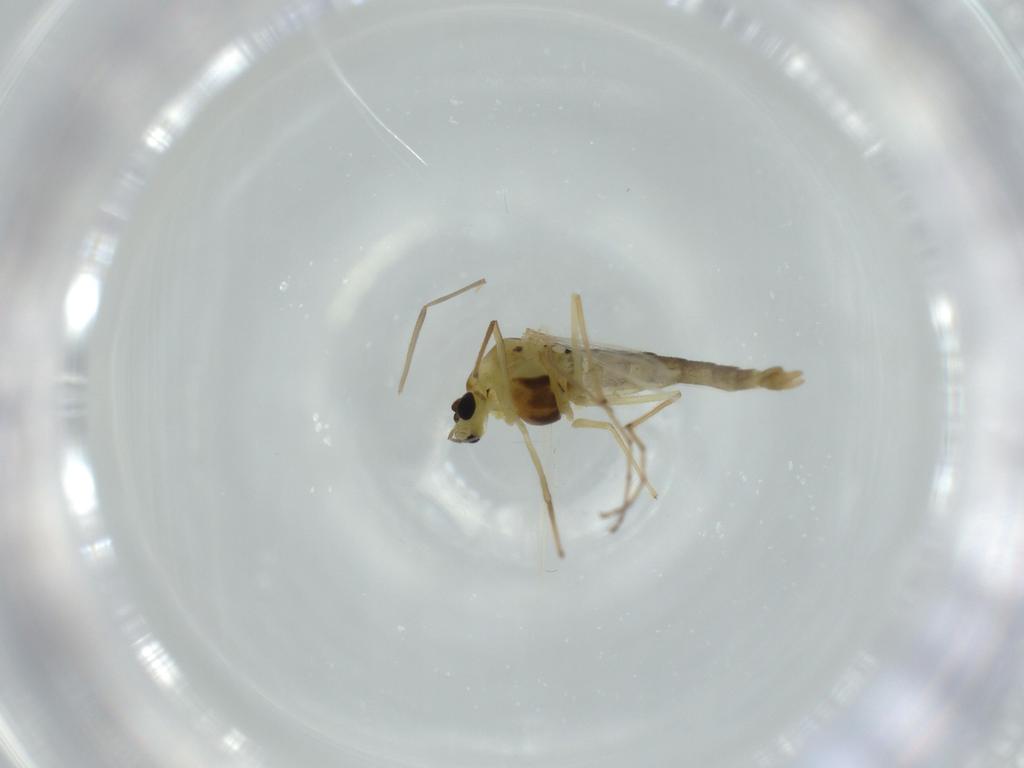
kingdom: Animalia
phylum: Arthropoda
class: Insecta
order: Diptera
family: Chironomidae
